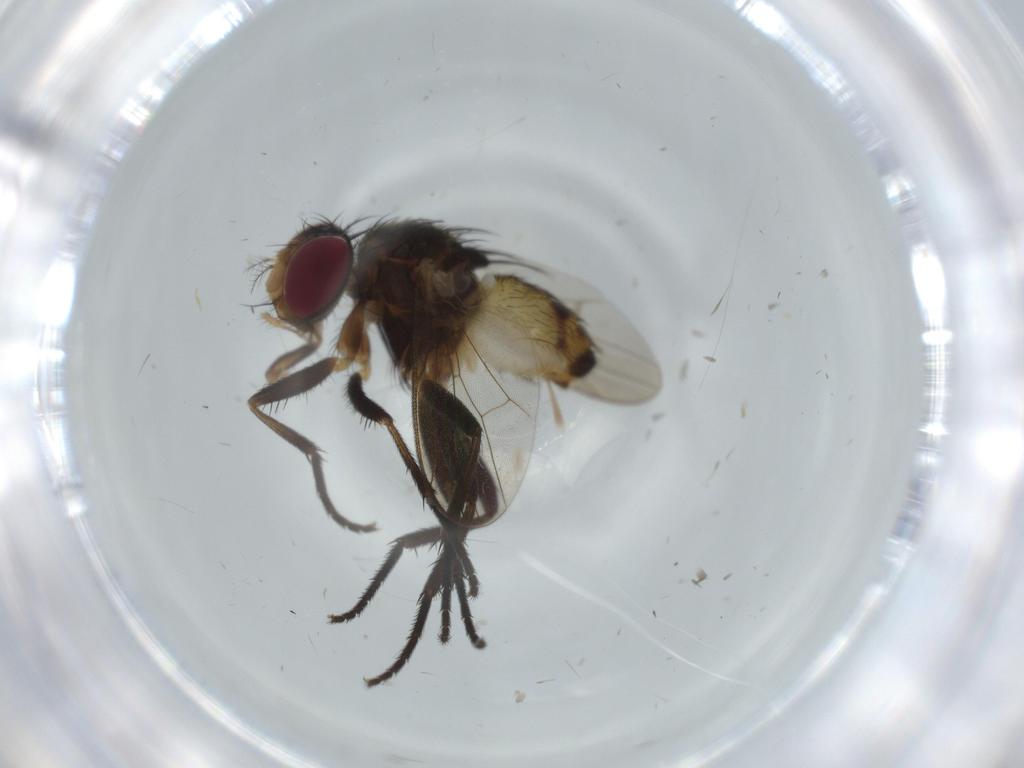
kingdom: Animalia
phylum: Arthropoda
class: Insecta
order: Diptera
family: Anthomyiidae
